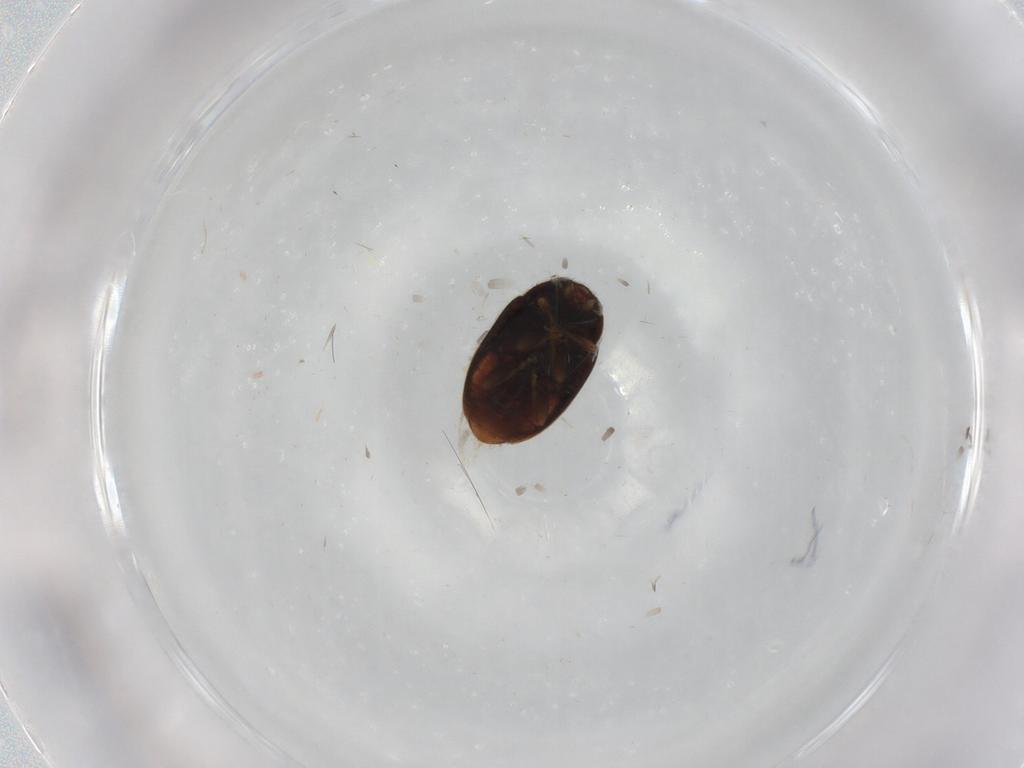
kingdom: Animalia
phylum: Arthropoda
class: Insecta
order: Coleoptera
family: Coccinellidae
